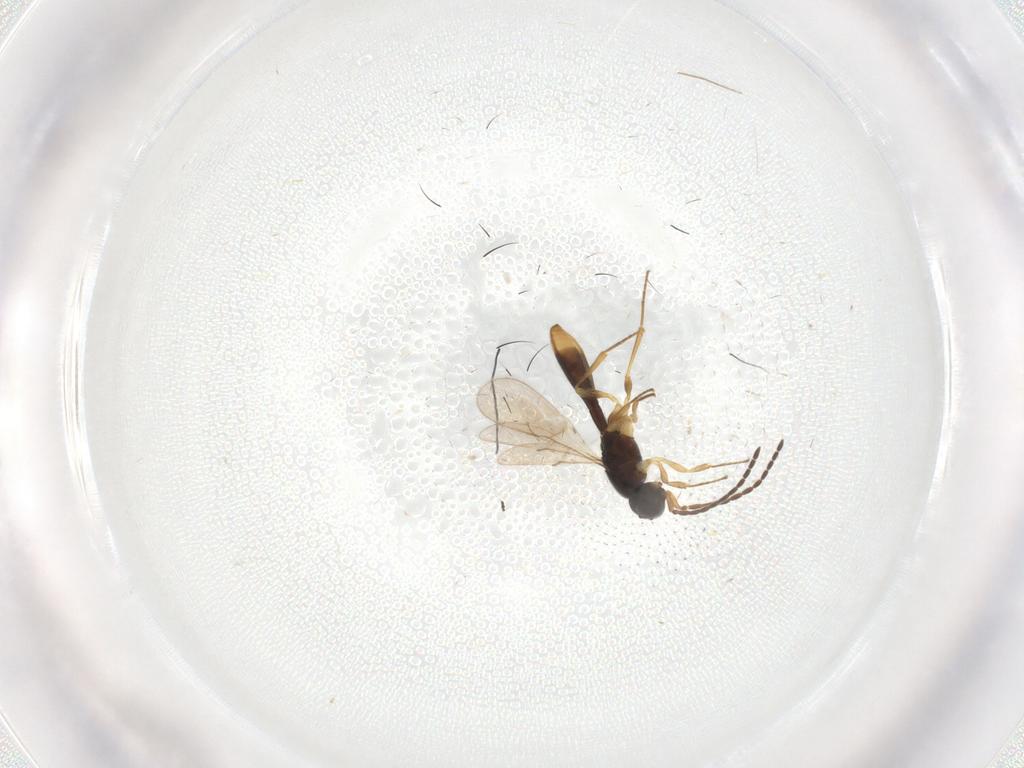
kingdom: Animalia
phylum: Arthropoda
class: Insecta
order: Hymenoptera
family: Scelionidae
